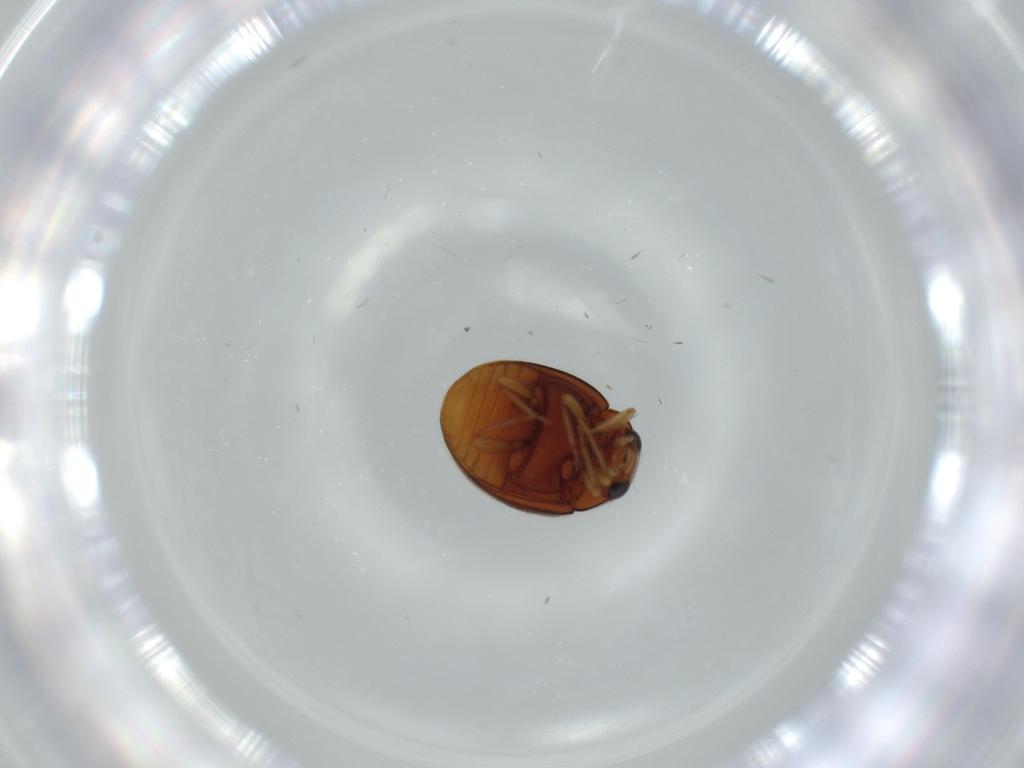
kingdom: Animalia
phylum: Arthropoda
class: Insecta
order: Coleoptera
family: Coccinellidae
